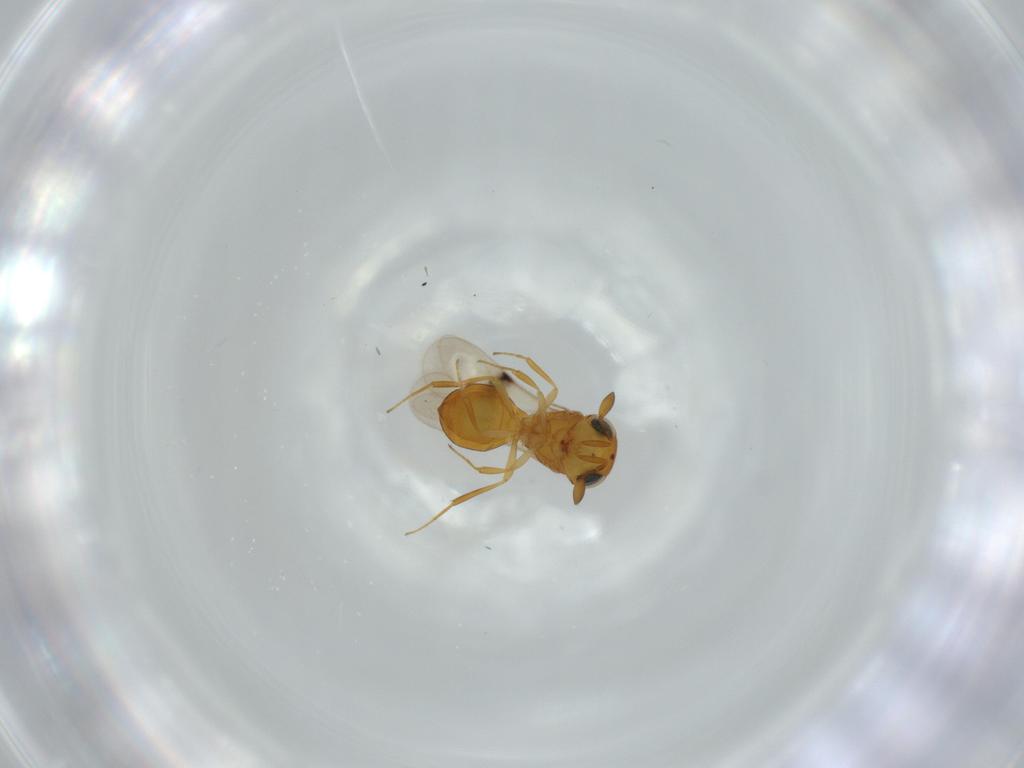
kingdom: Animalia
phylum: Arthropoda
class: Insecta
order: Hymenoptera
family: Scelionidae
